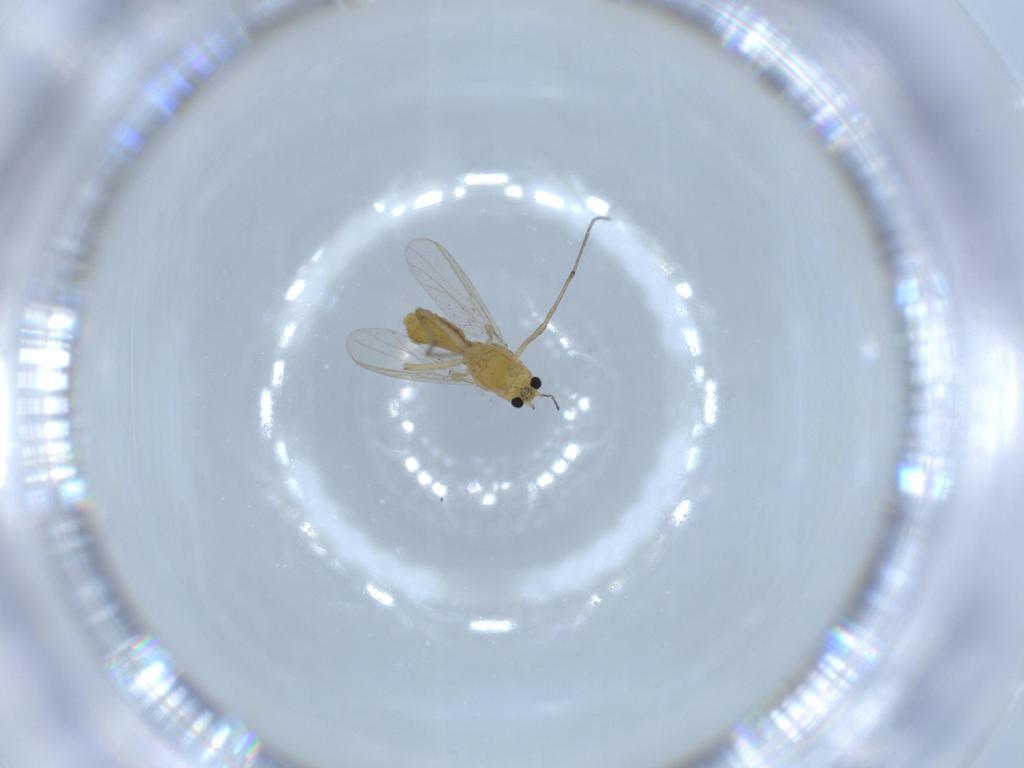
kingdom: Animalia
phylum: Arthropoda
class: Insecta
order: Diptera
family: Chironomidae
